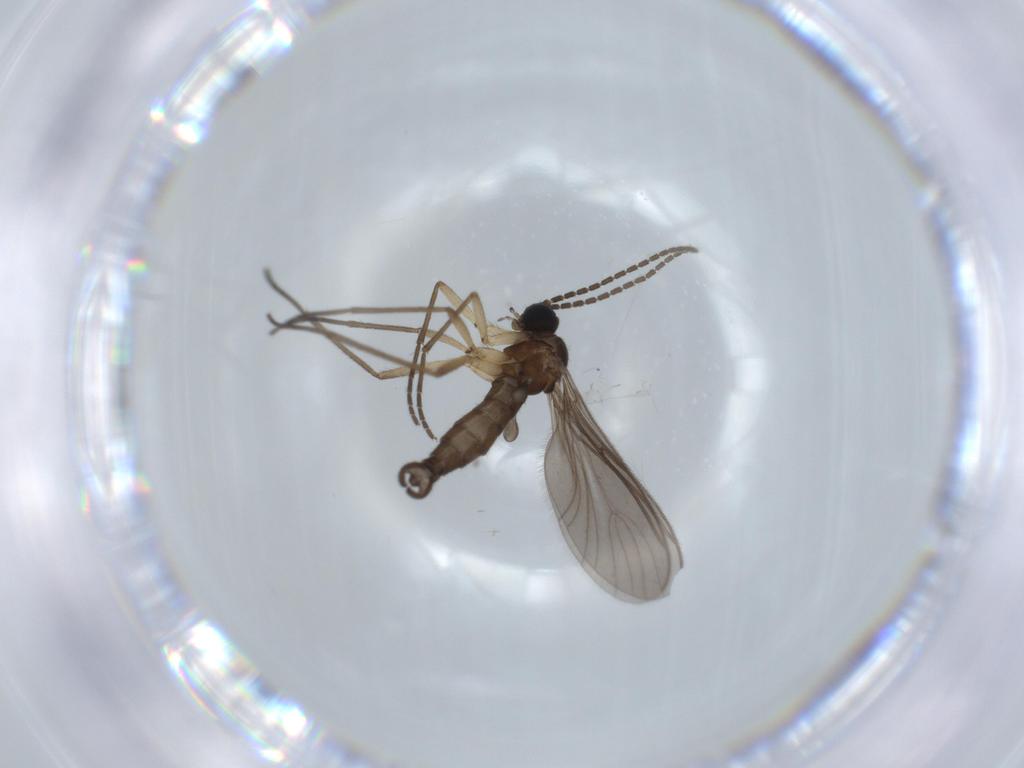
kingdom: Animalia
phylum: Arthropoda
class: Insecta
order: Diptera
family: Sciaridae
